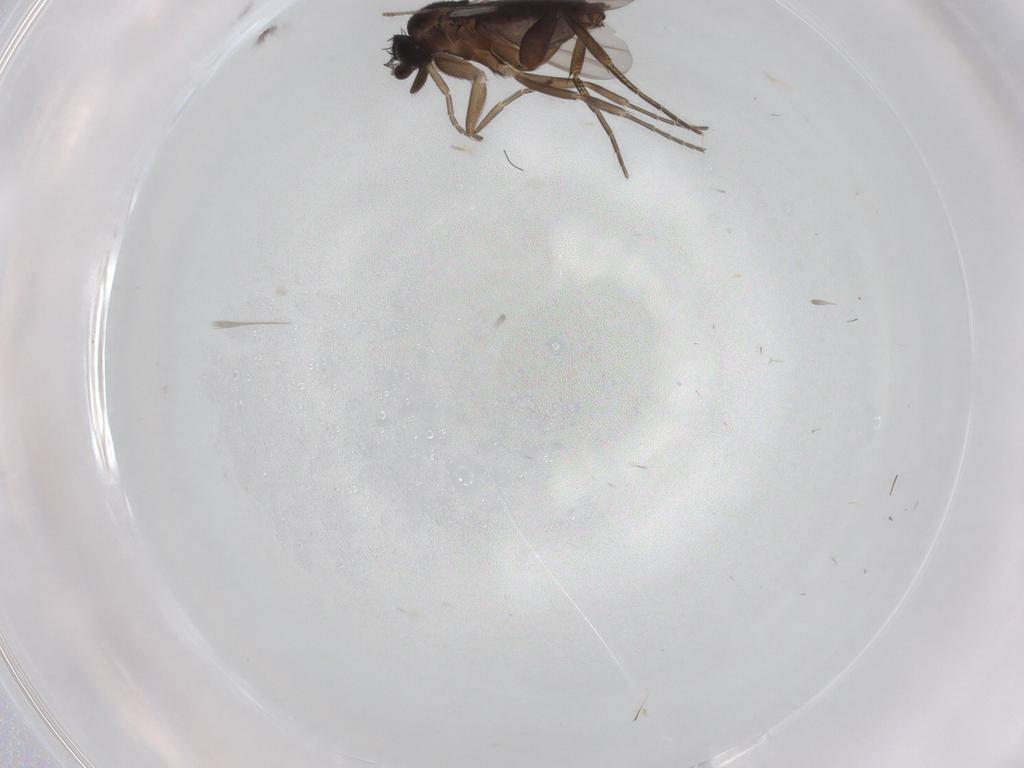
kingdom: Animalia
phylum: Arthropoda
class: Insecta
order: Diptera
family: Phoridae
